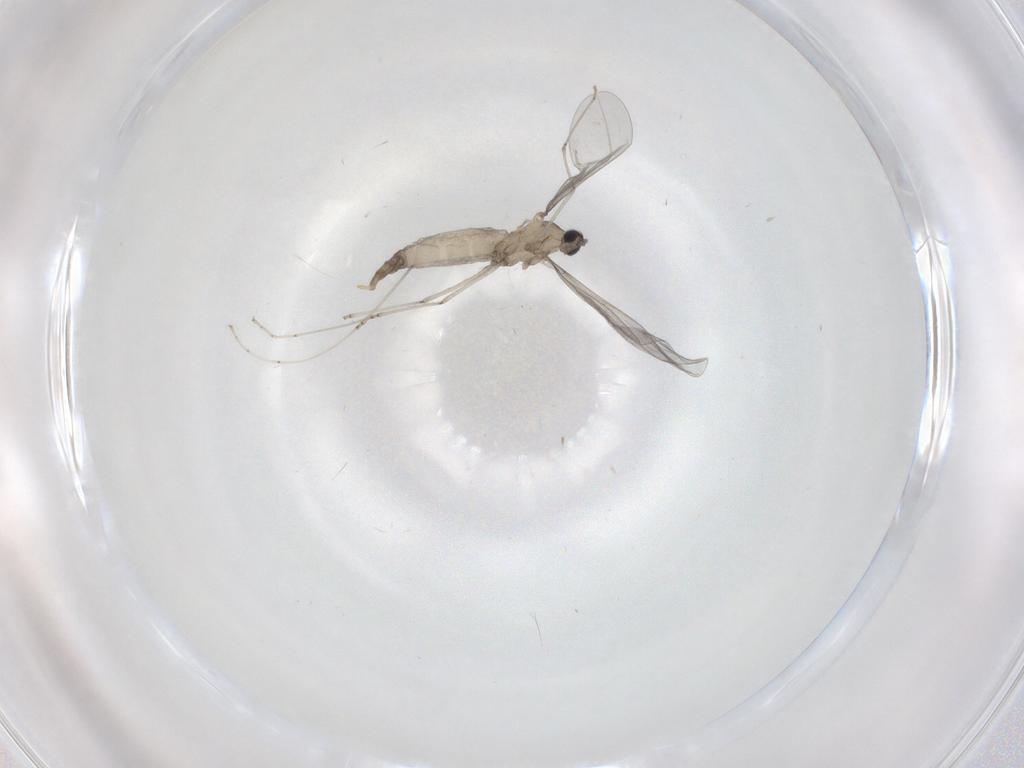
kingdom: Animalia
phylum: Arthropoda
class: Insecta
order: Diptera
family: Cecidomyiidae
